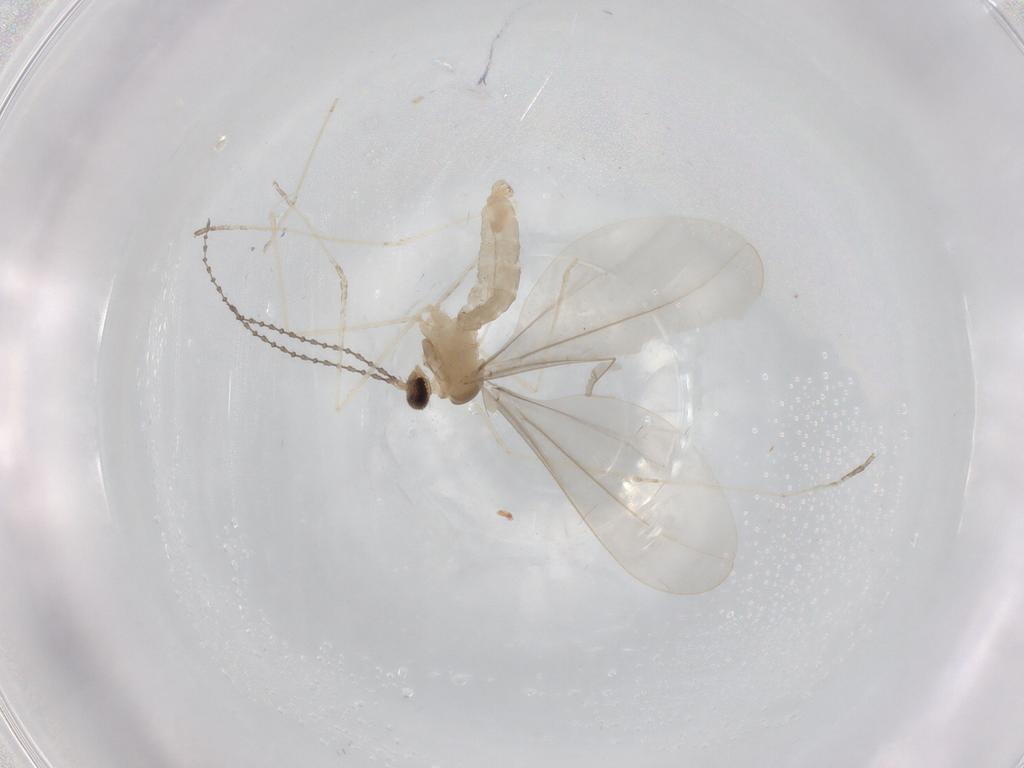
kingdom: Animalia
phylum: Arthropoda
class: Insecta
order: Diptera
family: Cecidomyiidae
